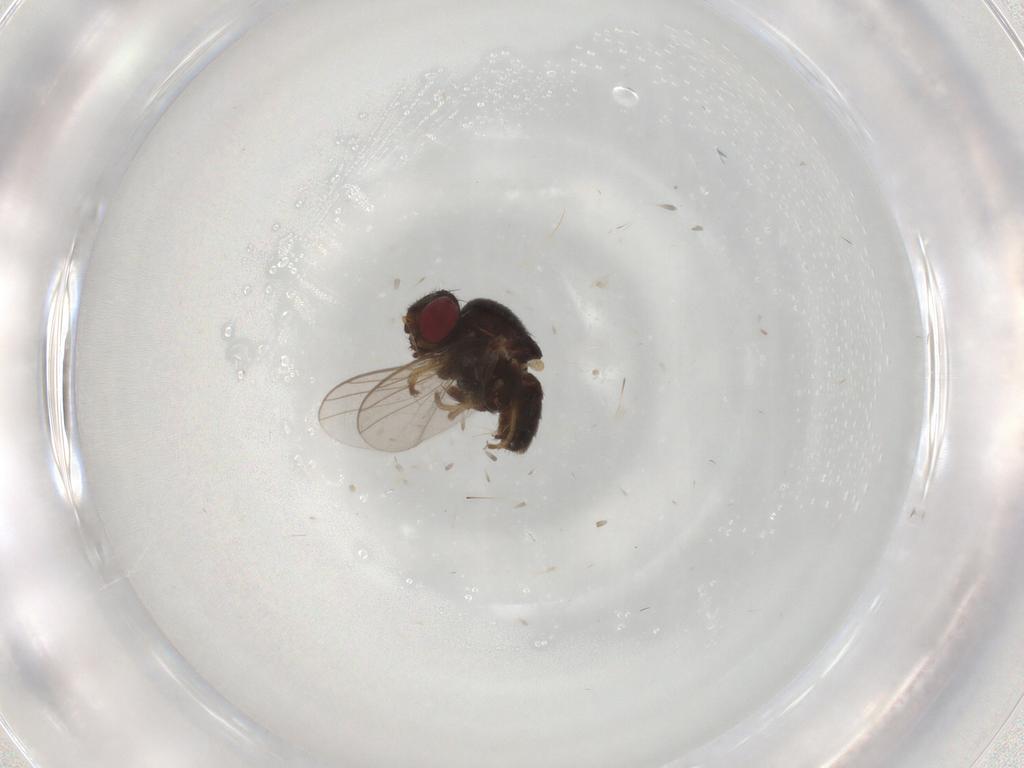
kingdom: Animalia
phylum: Arthropoda
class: Insecta
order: Diptera
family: Chloropidae
